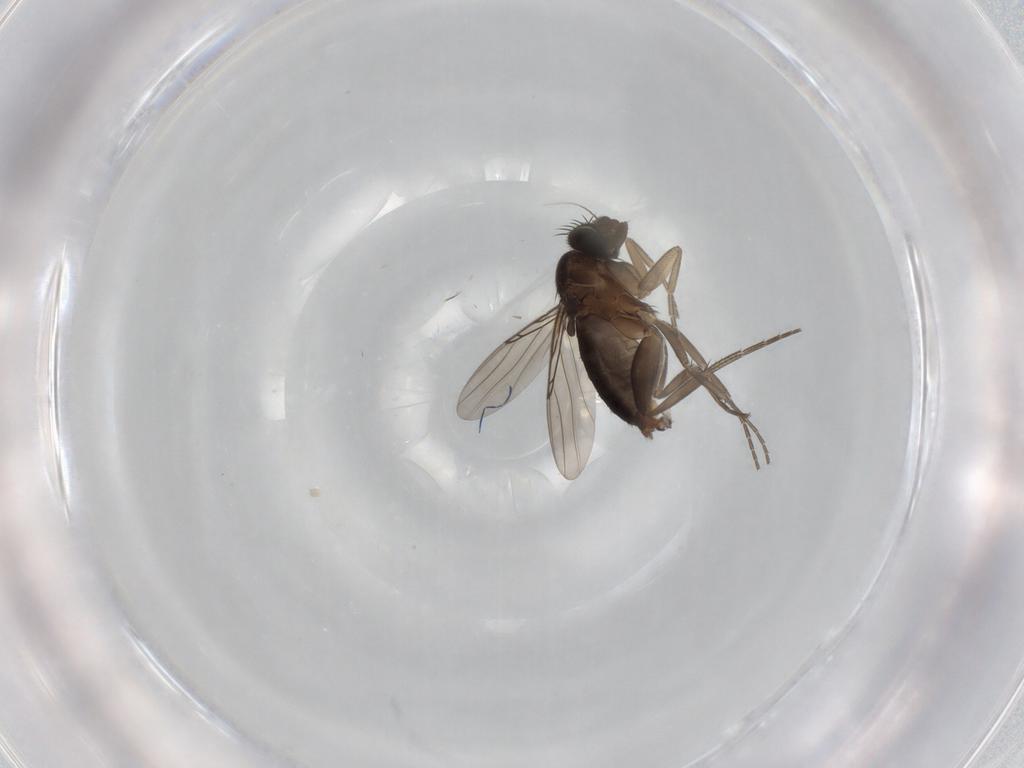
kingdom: Animalia
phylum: Arthropoda
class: Insecta
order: Diptera
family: Phoridae
